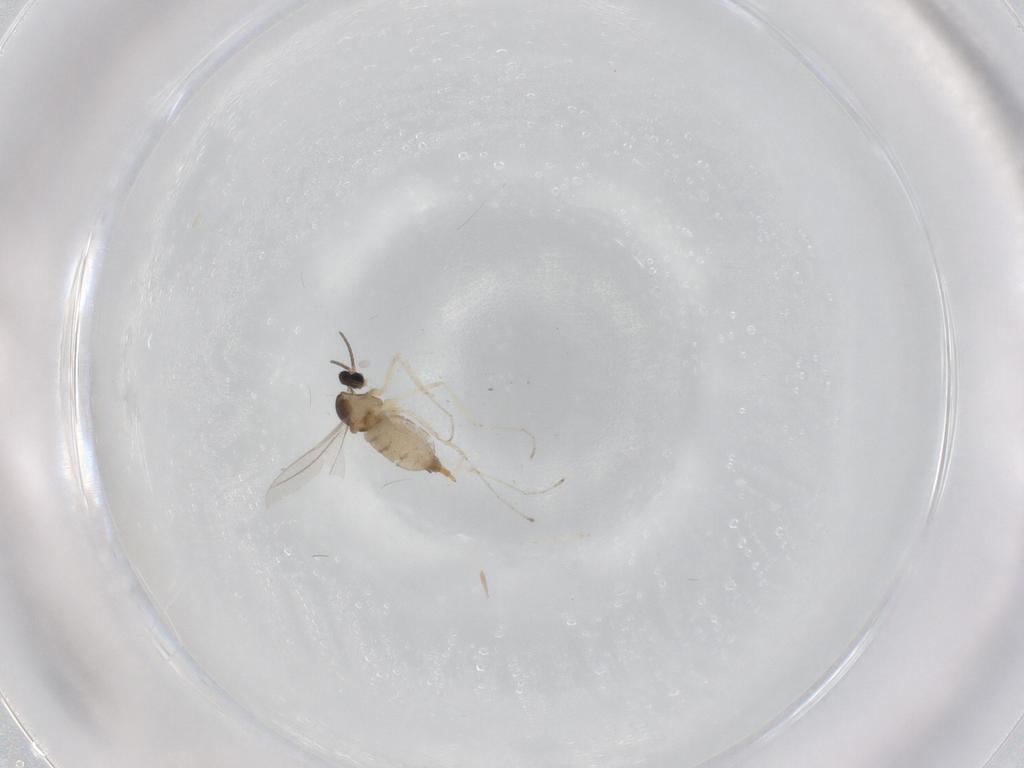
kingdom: Animalia
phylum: Arthropoda
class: Insecta
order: Diptera
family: Cecidomyiidae
